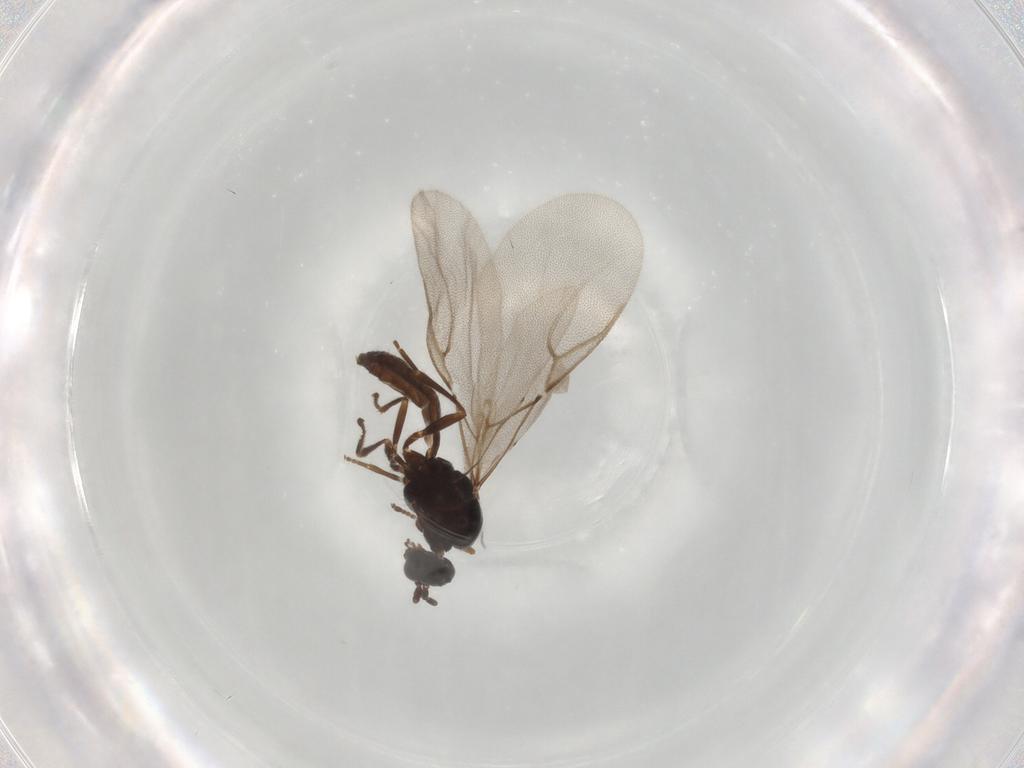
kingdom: Animalia
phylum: Arthropoda
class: Insecta
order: Hymenoptera
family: Braconidae
